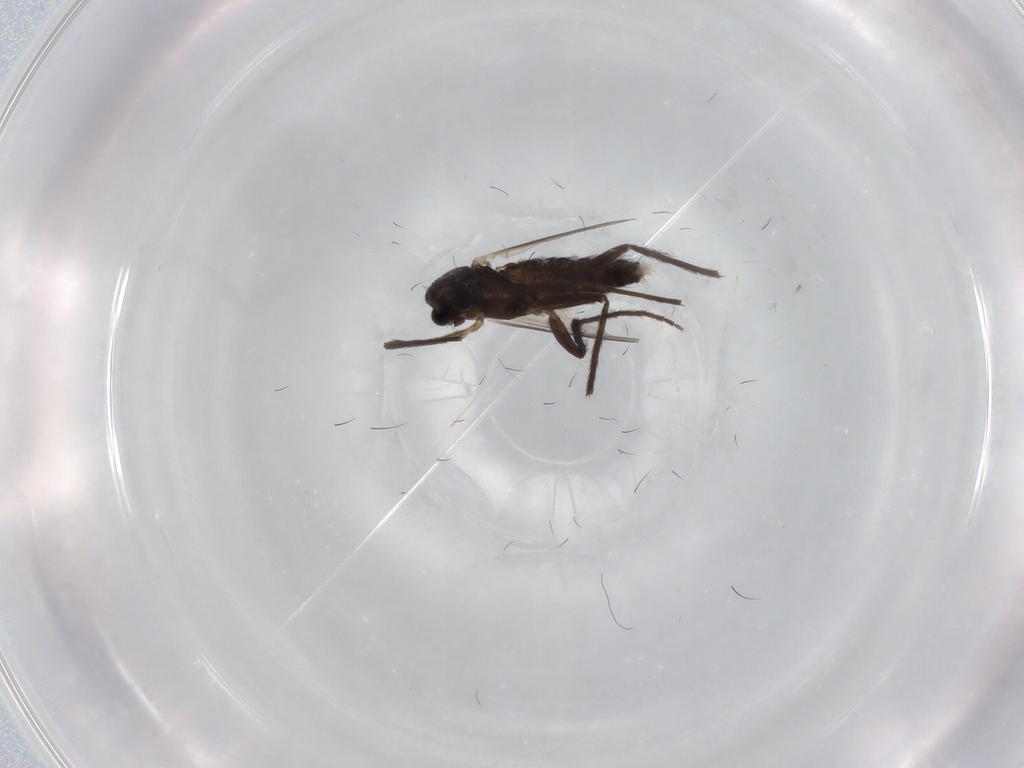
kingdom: Animalia
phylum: Arthropoda
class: Insecta
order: Diptera
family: Chironomidae
